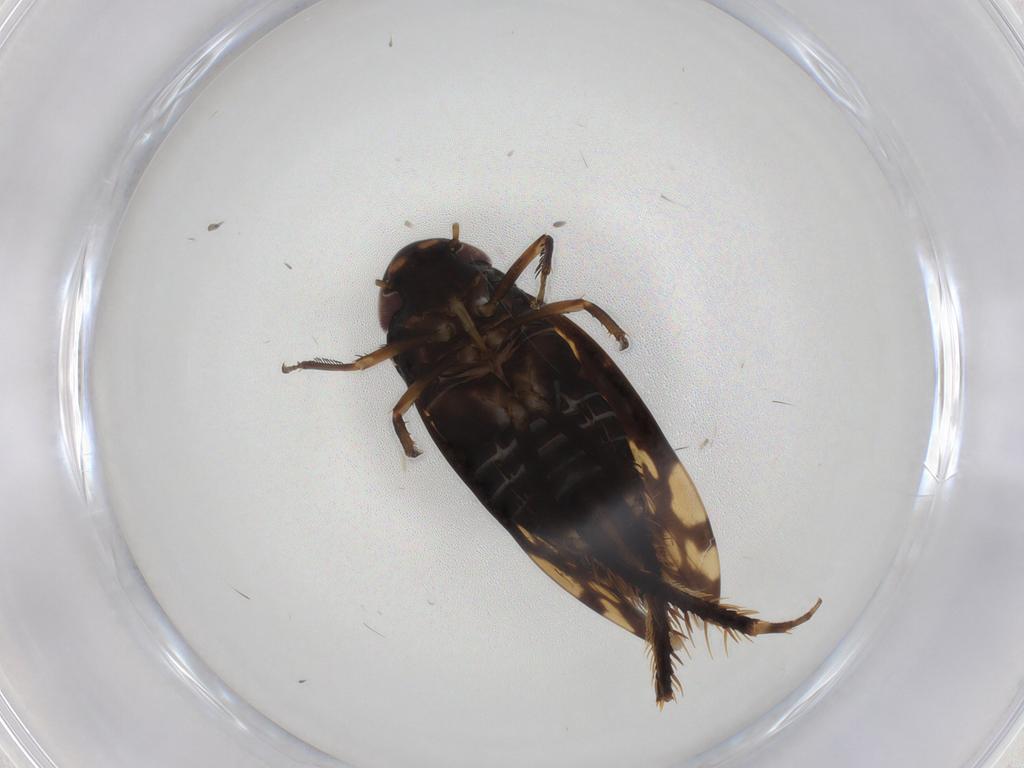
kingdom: Animalia
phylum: Arthropoda
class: Insecta
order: Hemiptera
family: Cicadellidae
